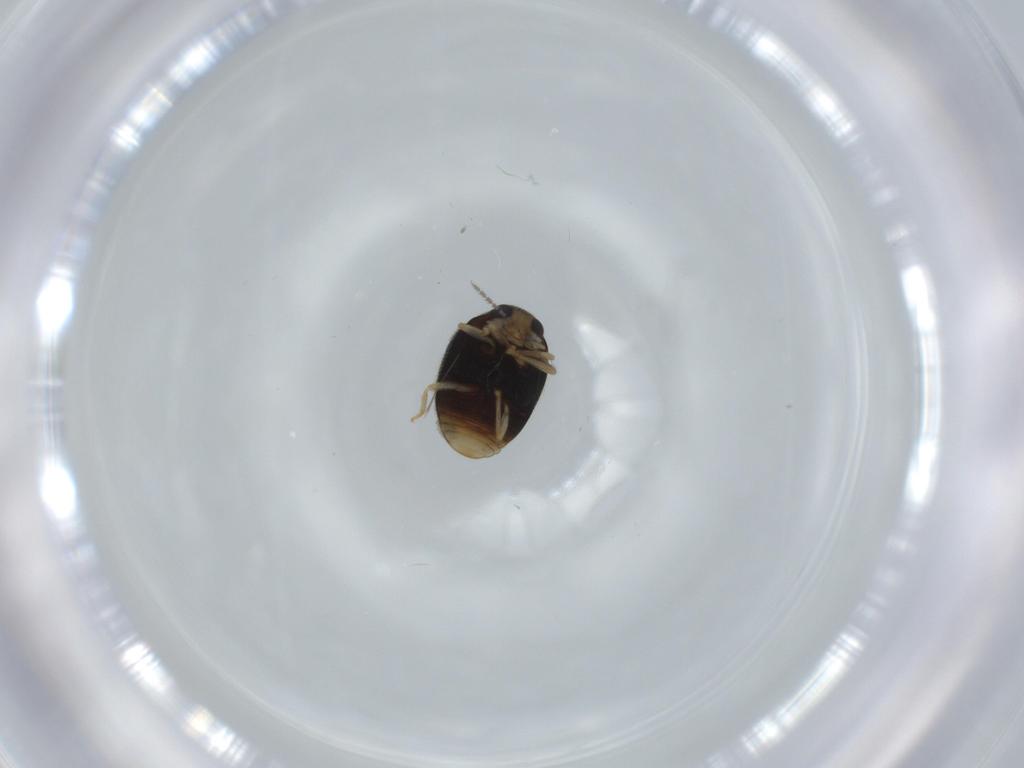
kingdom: Animalia
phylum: Arthropoda
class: Insecta
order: Coleoptera
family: Coccinellidae
